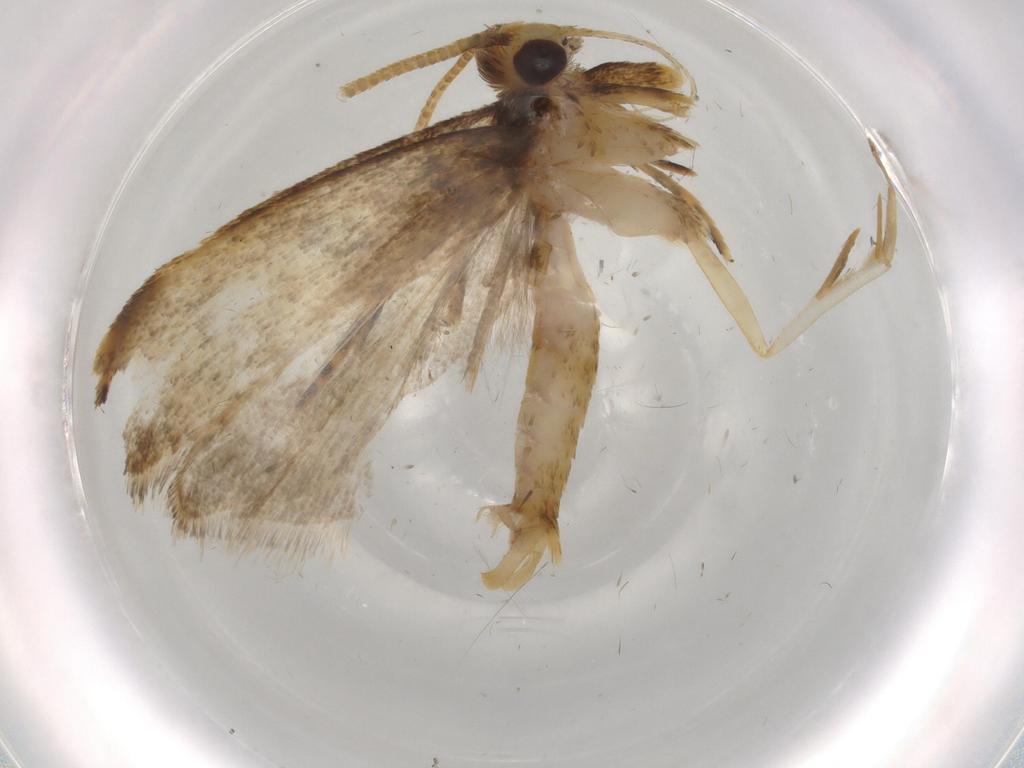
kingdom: Animalia
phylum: Arthropoda
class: Insecta
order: Lepidoptera
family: Autostichidae
